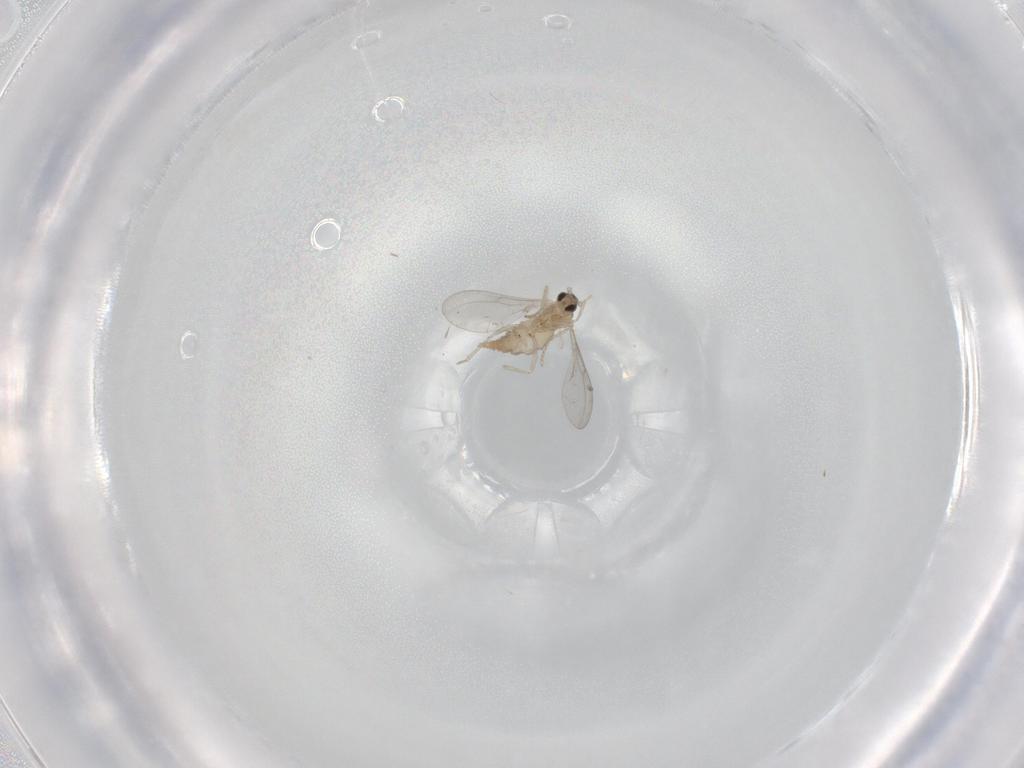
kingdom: Animalia
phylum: Arthropoda
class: Insecta
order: Diptera
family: Cecidomyiidae
